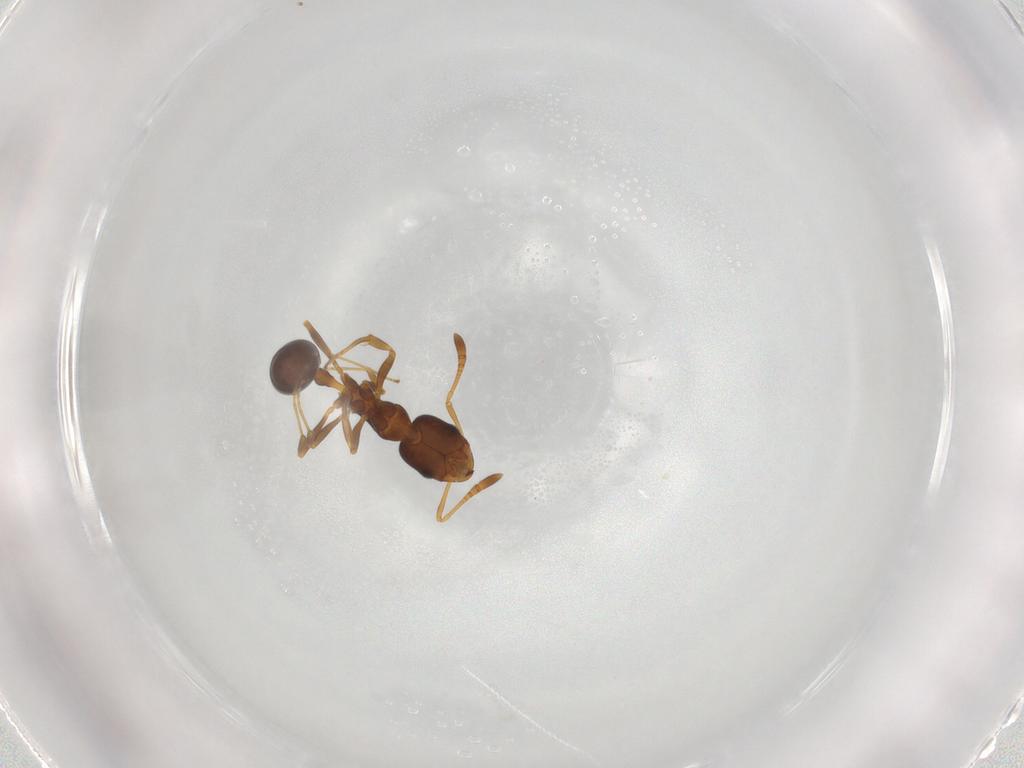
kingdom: Animalia
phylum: Arthropoda
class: Insecta
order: Hymenoptera
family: Formicidae
